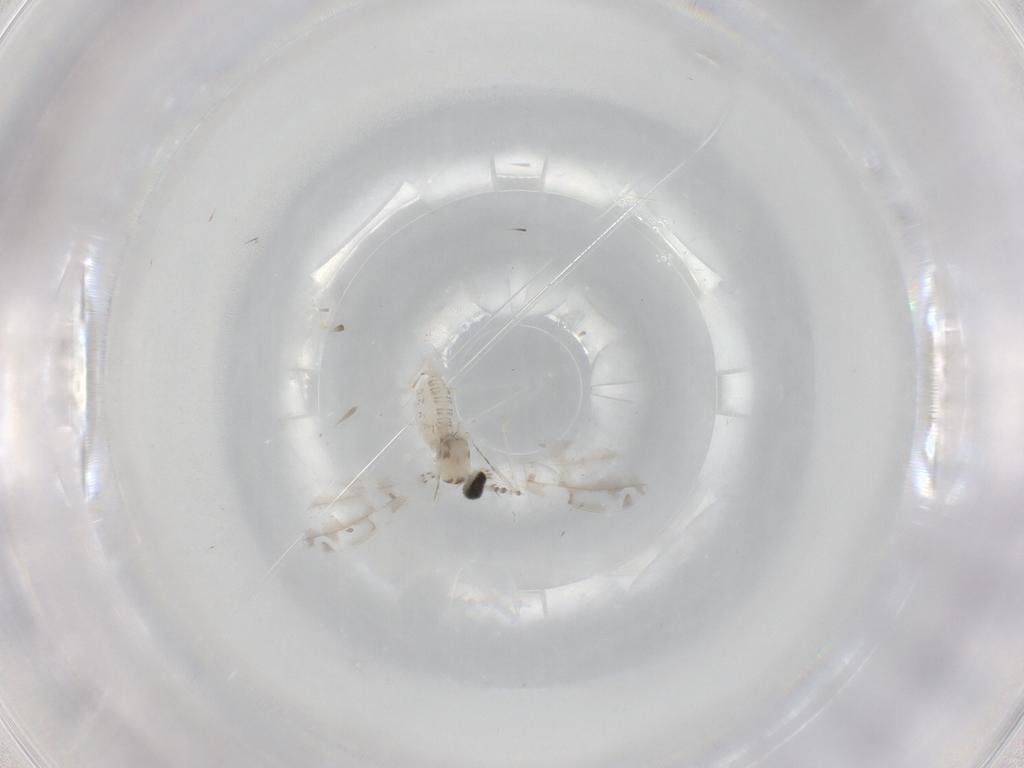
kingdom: Animalia
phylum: Arthropoda
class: Insecta
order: Diptera
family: Cecidomyiidae
